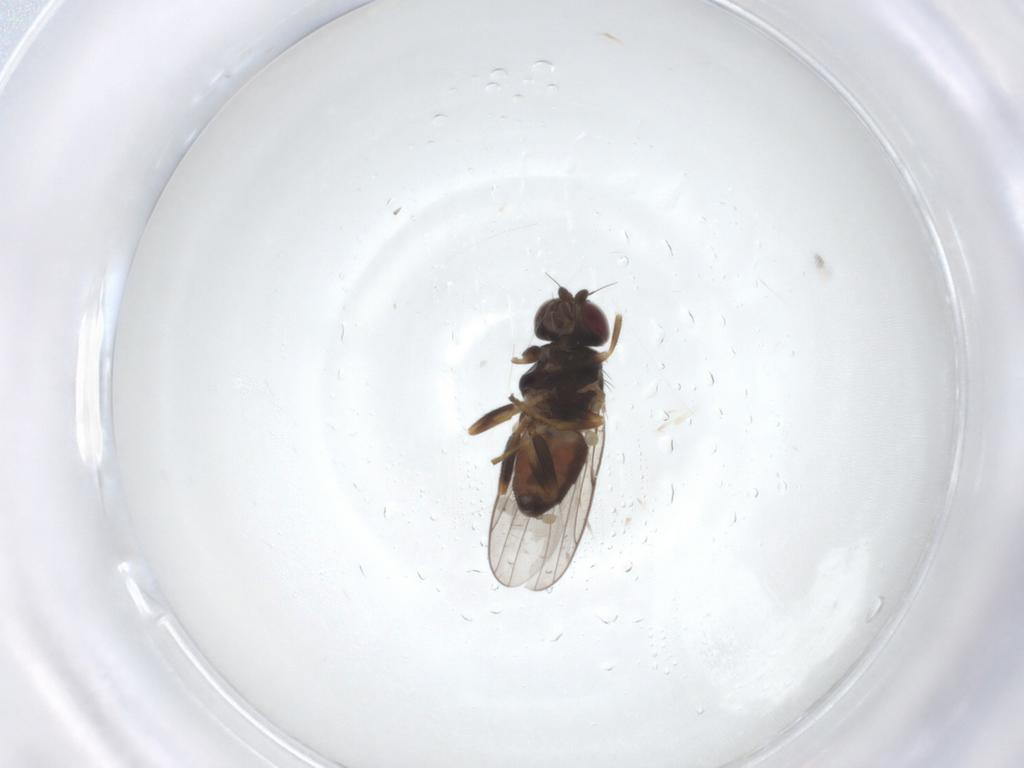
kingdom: Animalia
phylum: Arthropoda
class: Insecta
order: Diptera
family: Chloropidae
